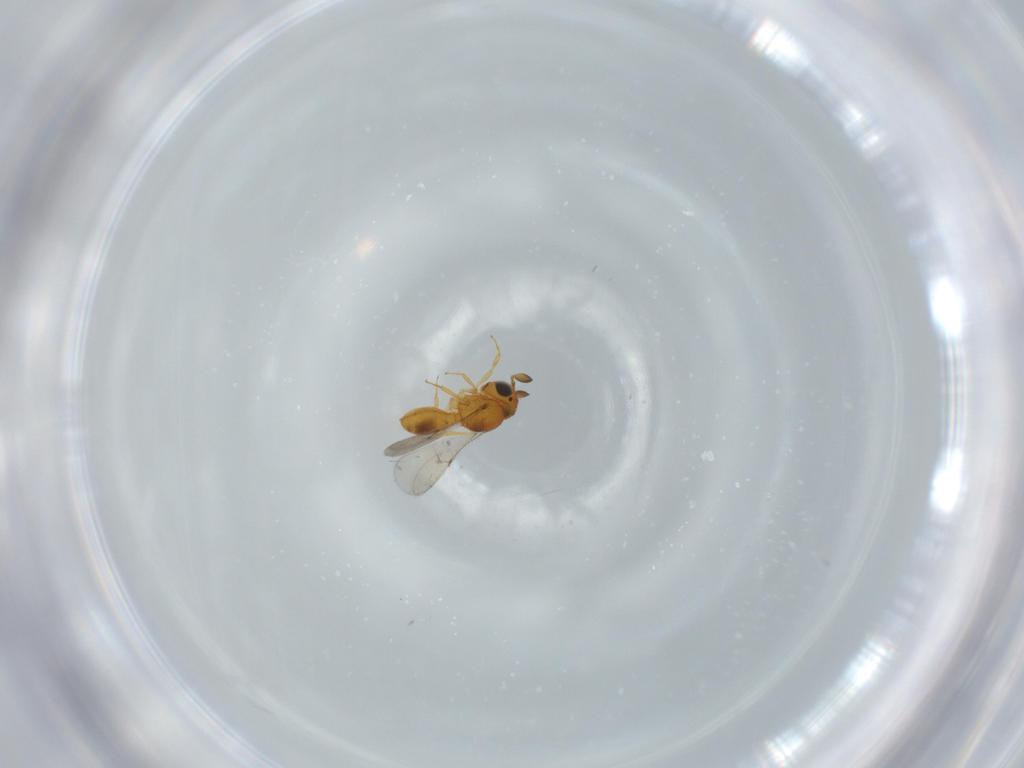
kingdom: Animalia
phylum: Arthropoda
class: Insecta
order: Hymenoptera
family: Scelionidae
